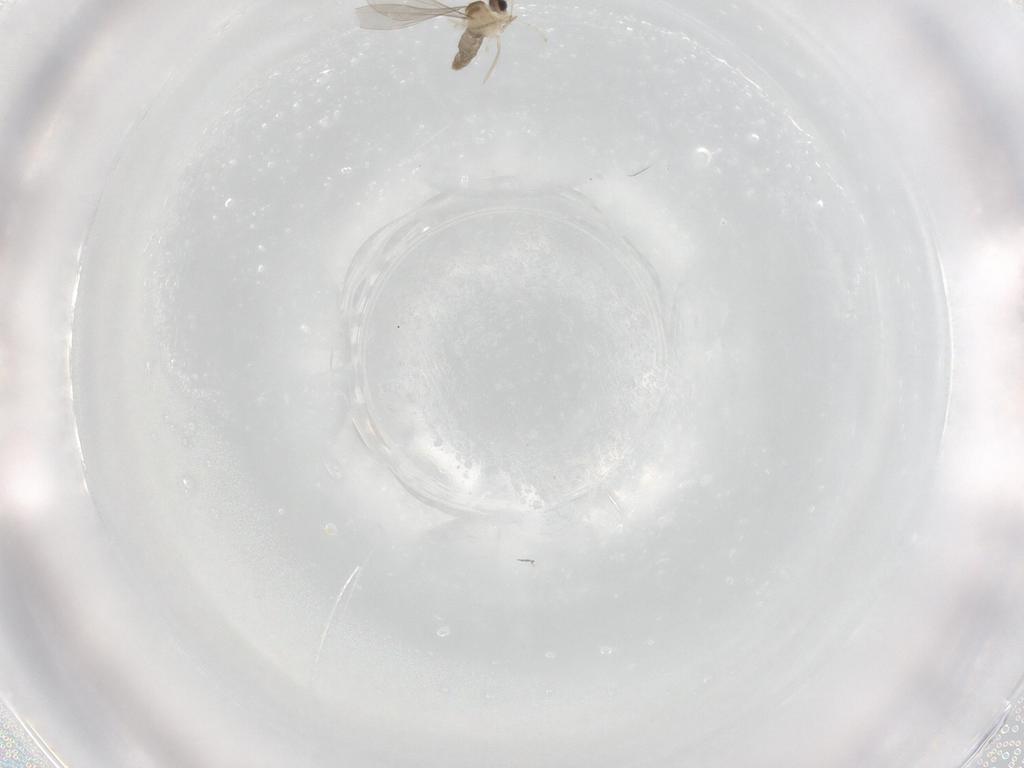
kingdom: Animalia
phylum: Arthropoda
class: Insecta
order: Diptera
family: Cecidomyiidae
